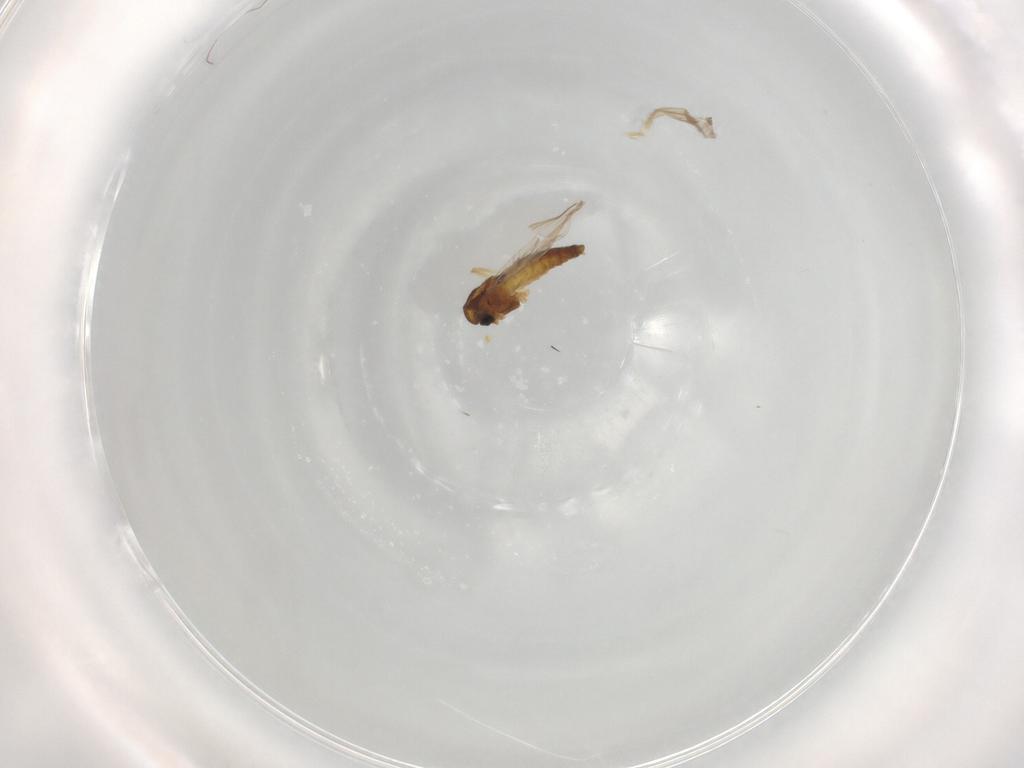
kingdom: Animalia
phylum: Arthropoda
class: Insecta
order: Diptera
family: Chironomidae
